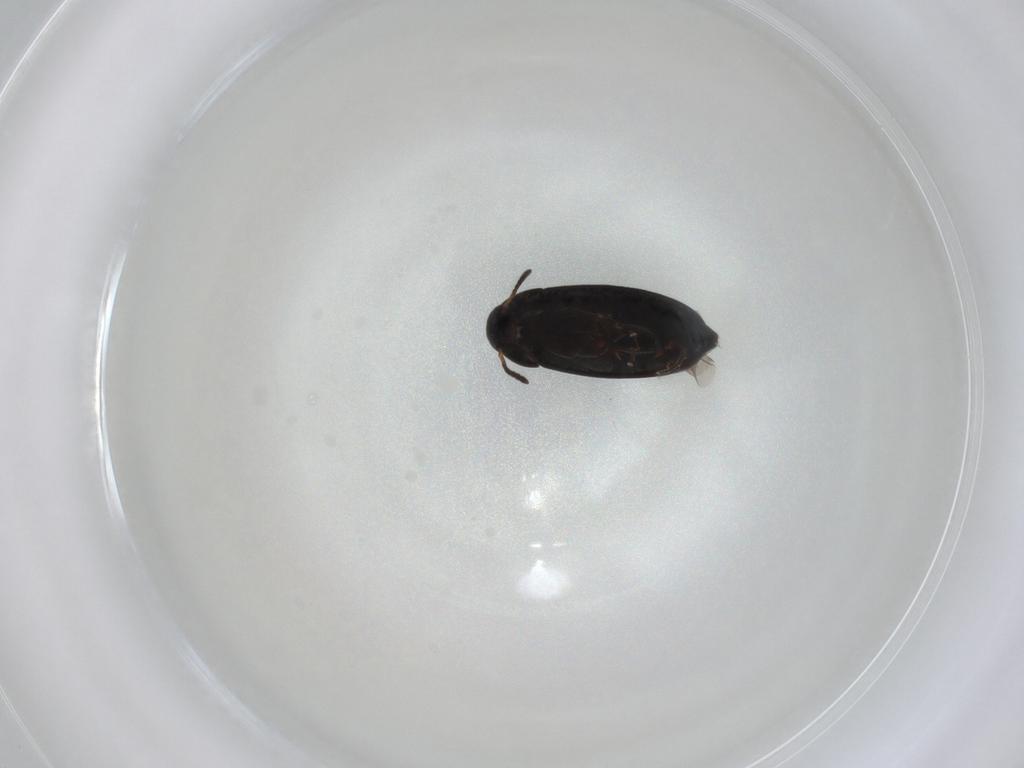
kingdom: Animalia
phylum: Arthropoda
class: Insecta
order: Coleoptera
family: Scraptiidae
